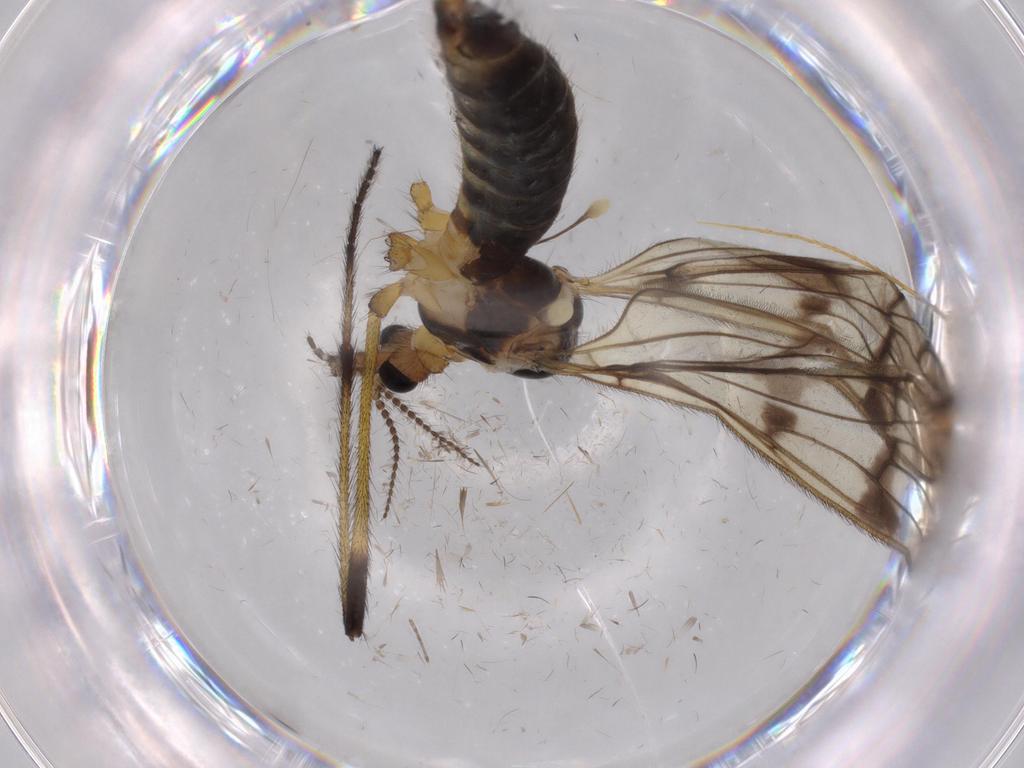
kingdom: Animalia
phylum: Arthropoda
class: Insecta
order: Diptera
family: Limoniidae
